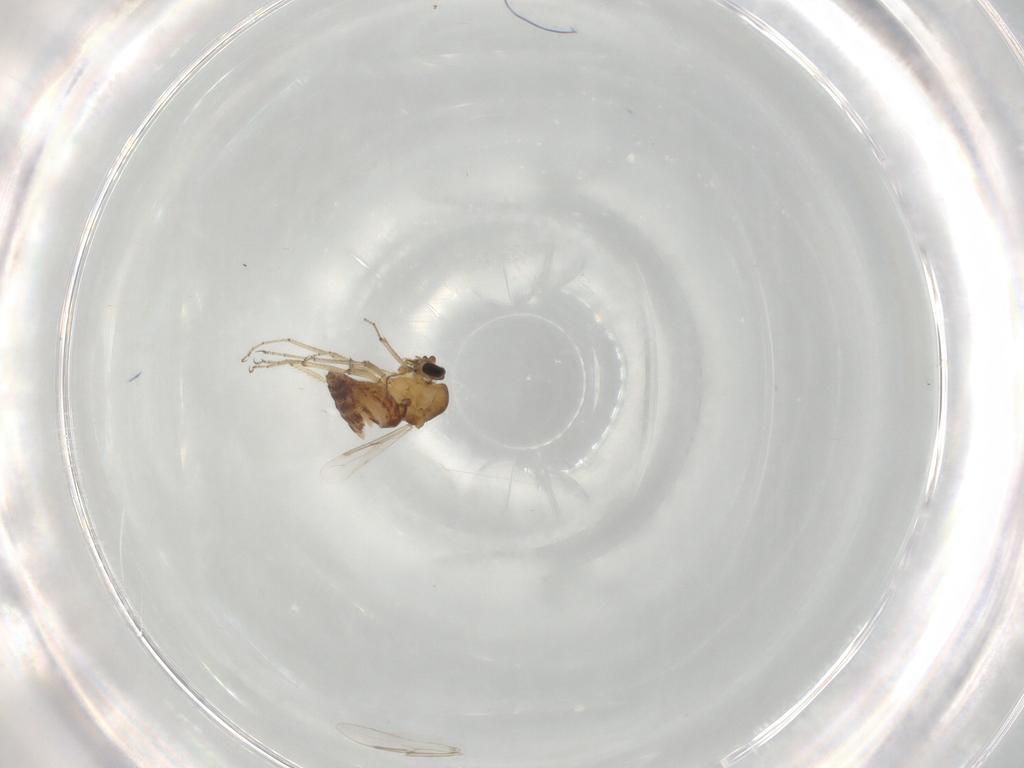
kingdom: Animalia
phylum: Arthropoda
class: Insecta
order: Diptera
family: Ceratopogonidae
